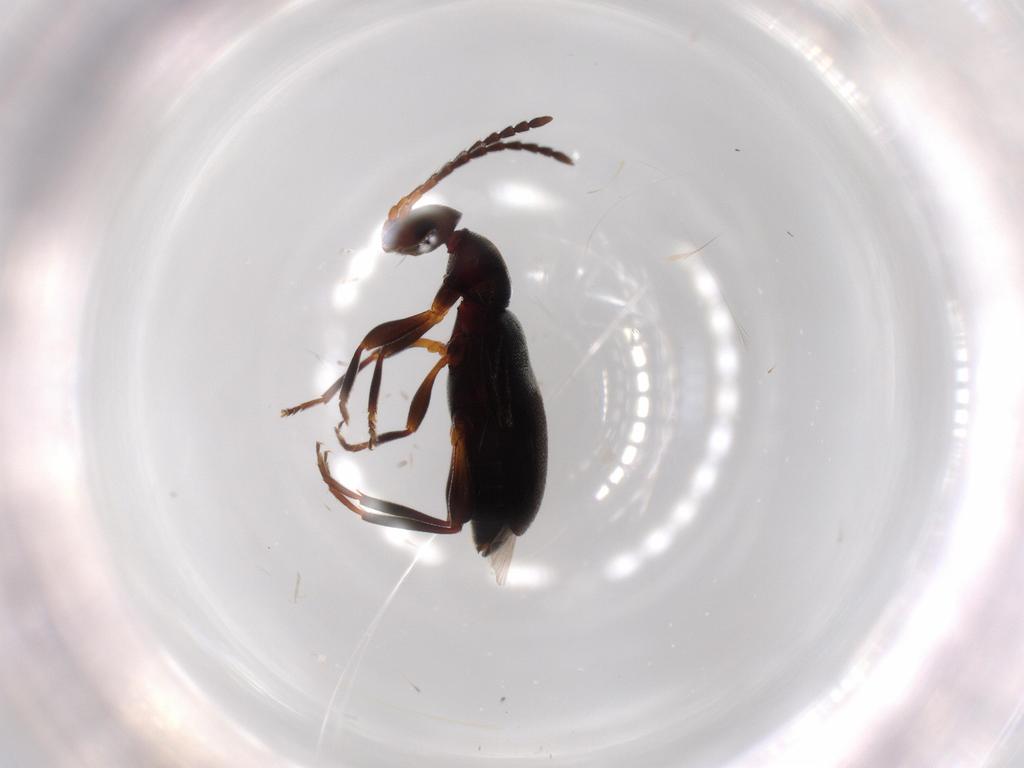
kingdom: Animalia
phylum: Arthropoda
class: Insecta
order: Coleoptera
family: Anthicidae
